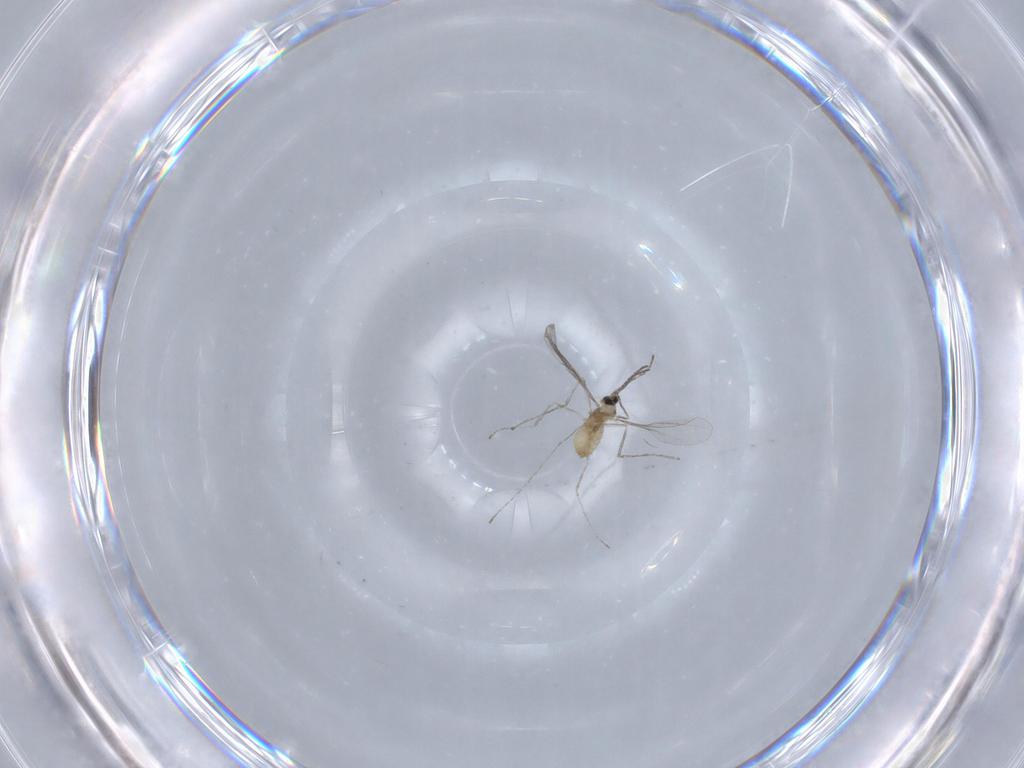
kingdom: Animalia
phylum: Arthropoda
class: Insecta
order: Diptera
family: Cecidomyiidae
